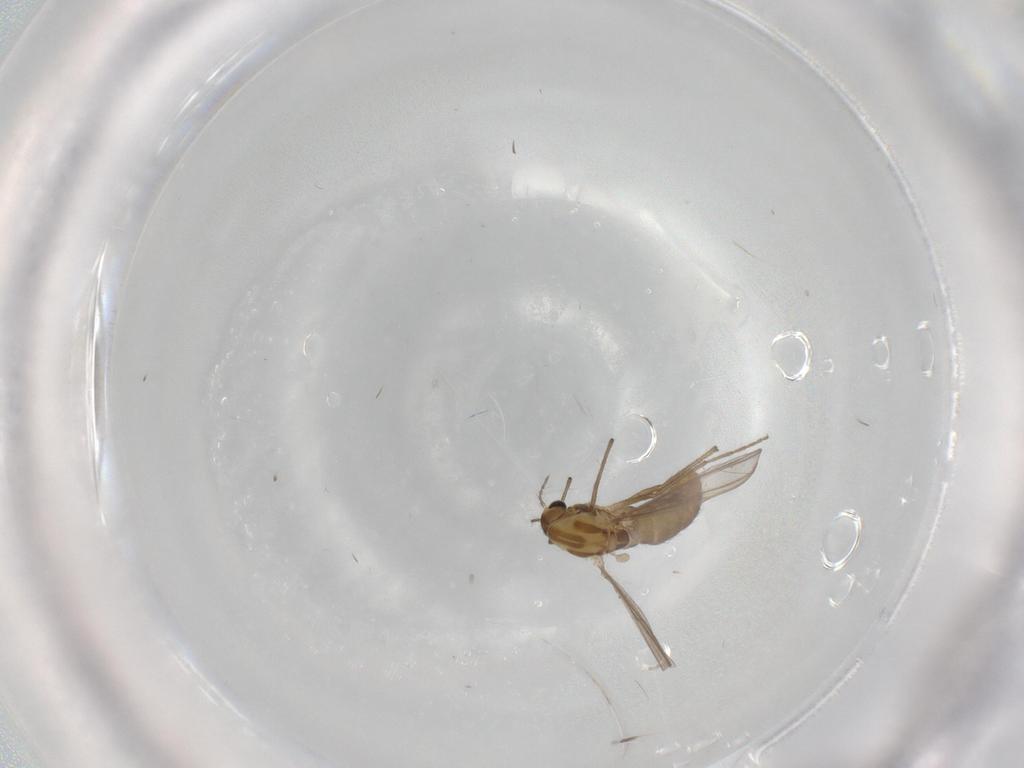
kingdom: Animalia
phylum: Arthropoda
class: Insecta
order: Diptera
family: Chironomidae
